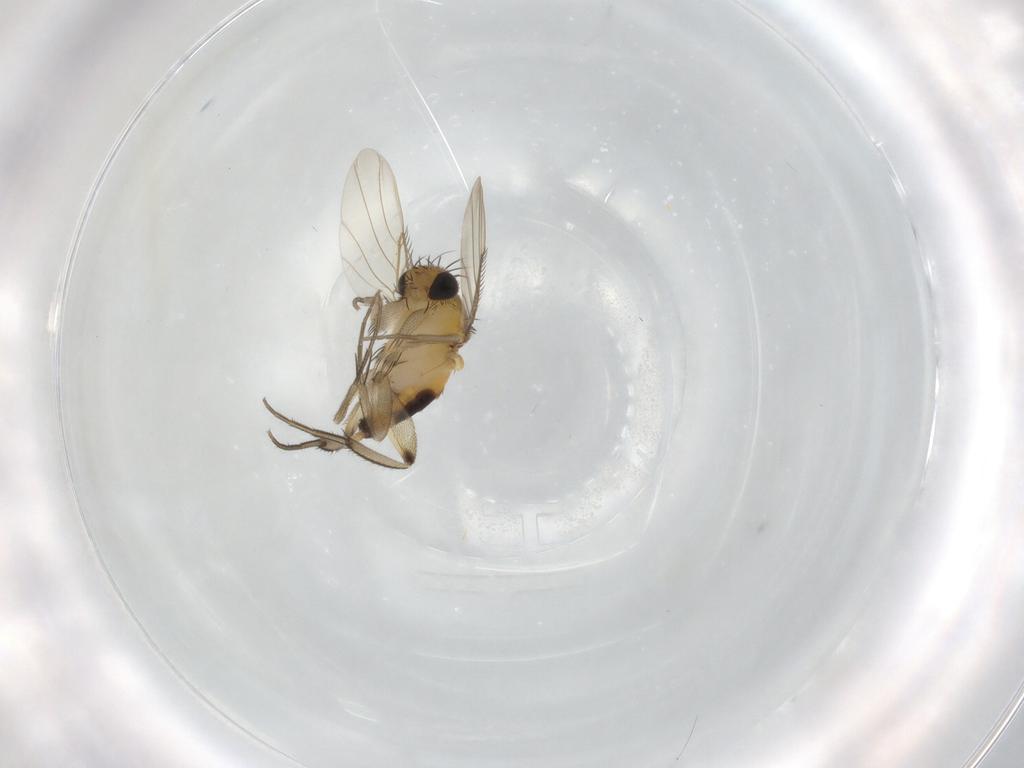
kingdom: Animalia
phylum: Arthropoda
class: Insecta
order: Diptera
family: Phoridae
